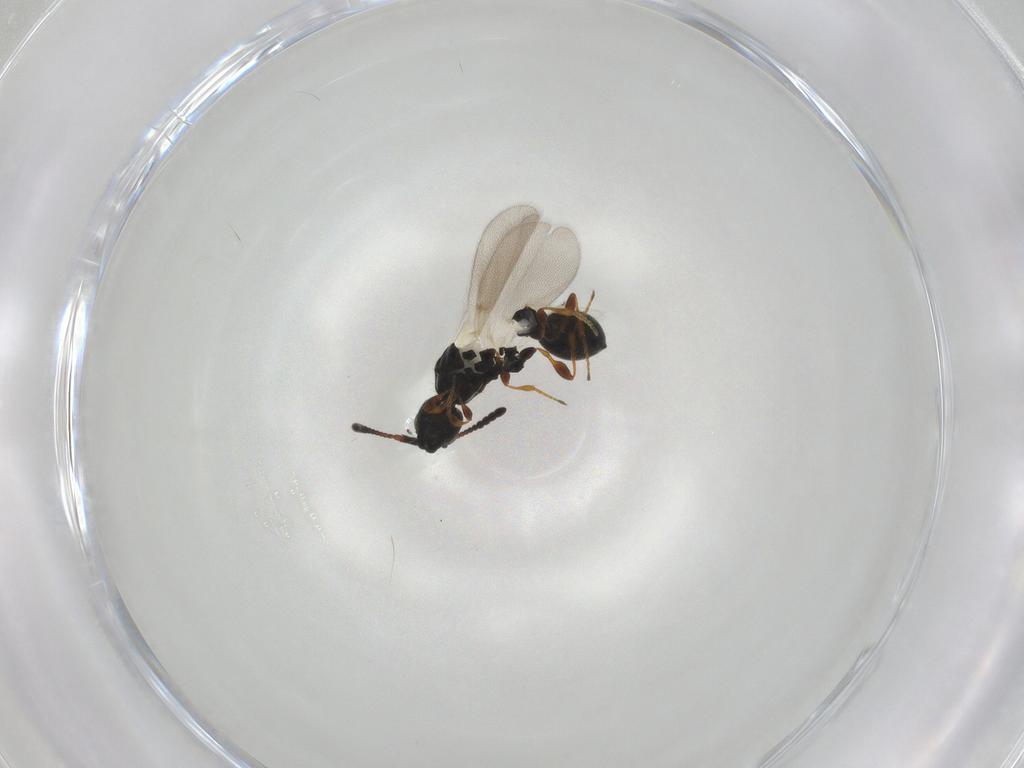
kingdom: Animalia
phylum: Arthropoda
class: Insecta
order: Hymenoptera
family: Diapriidae
